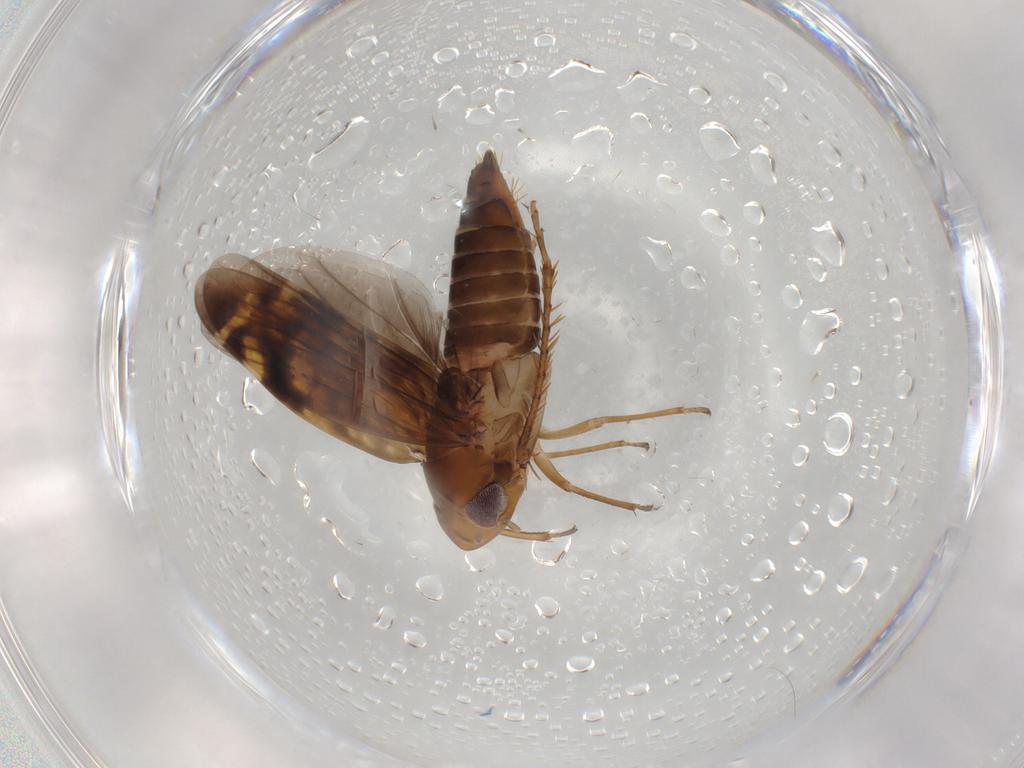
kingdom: Animalia
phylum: Arthropoda
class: Insecta
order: Hemiptera
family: Cicadellidae
